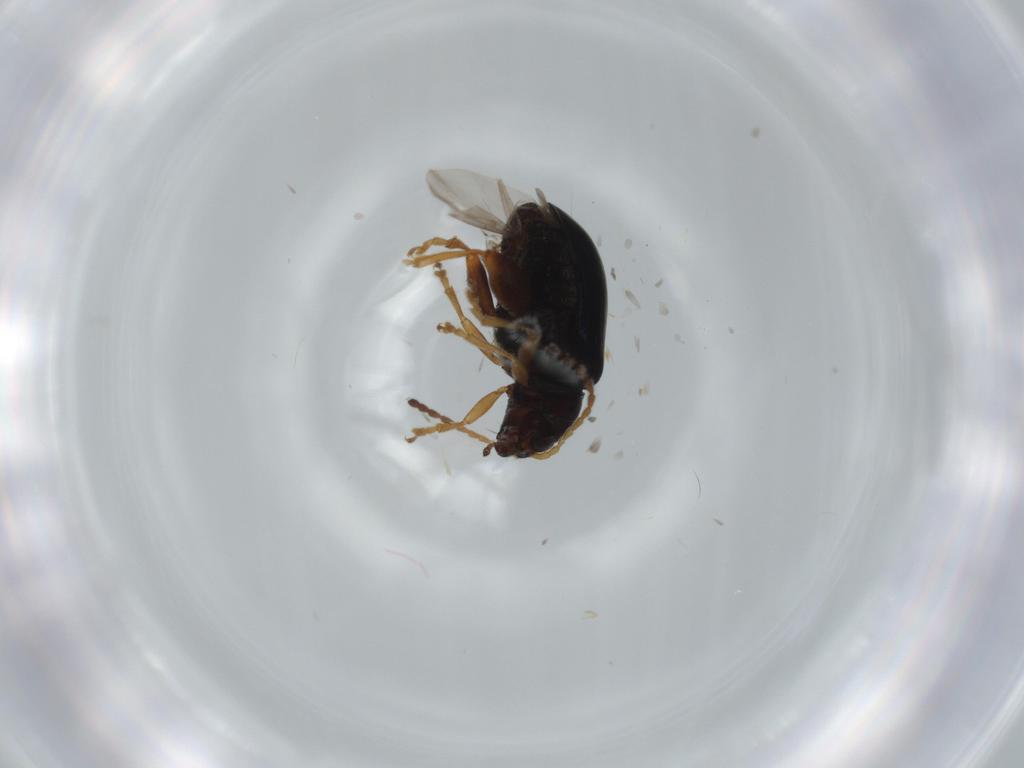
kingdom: Animalia
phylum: Arthropoda
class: Insecta
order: Coleoptera
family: Chrysomelidae
